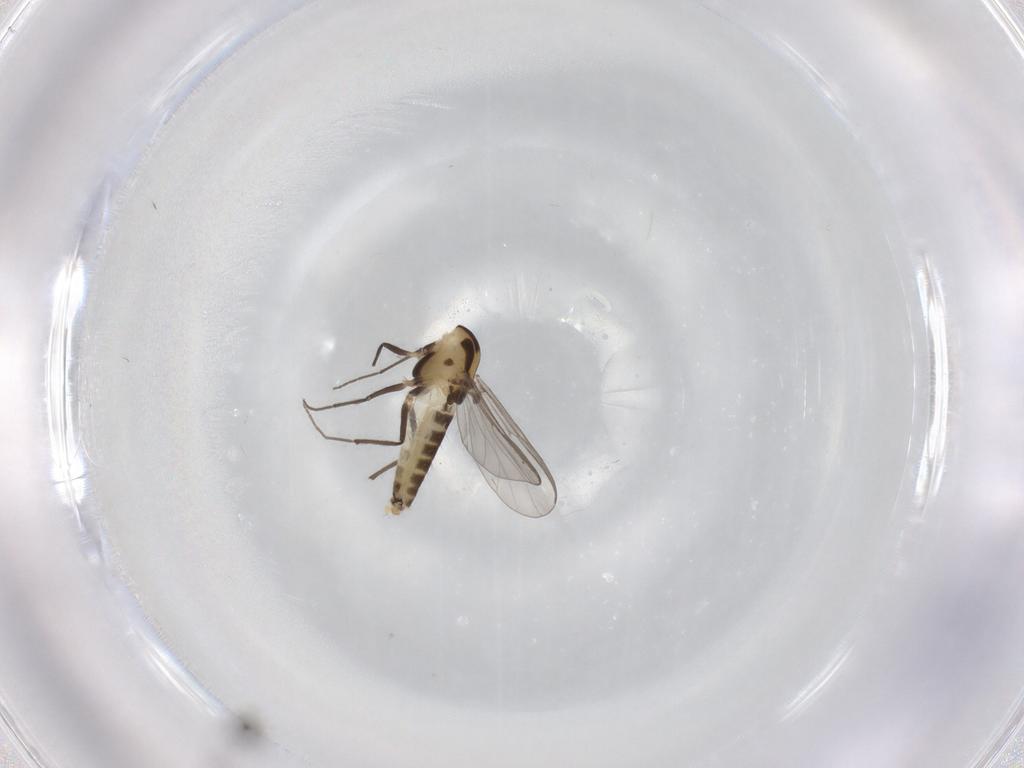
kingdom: Animalia
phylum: Arthropoda
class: Insecta
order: Diptera
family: Chironomidae
